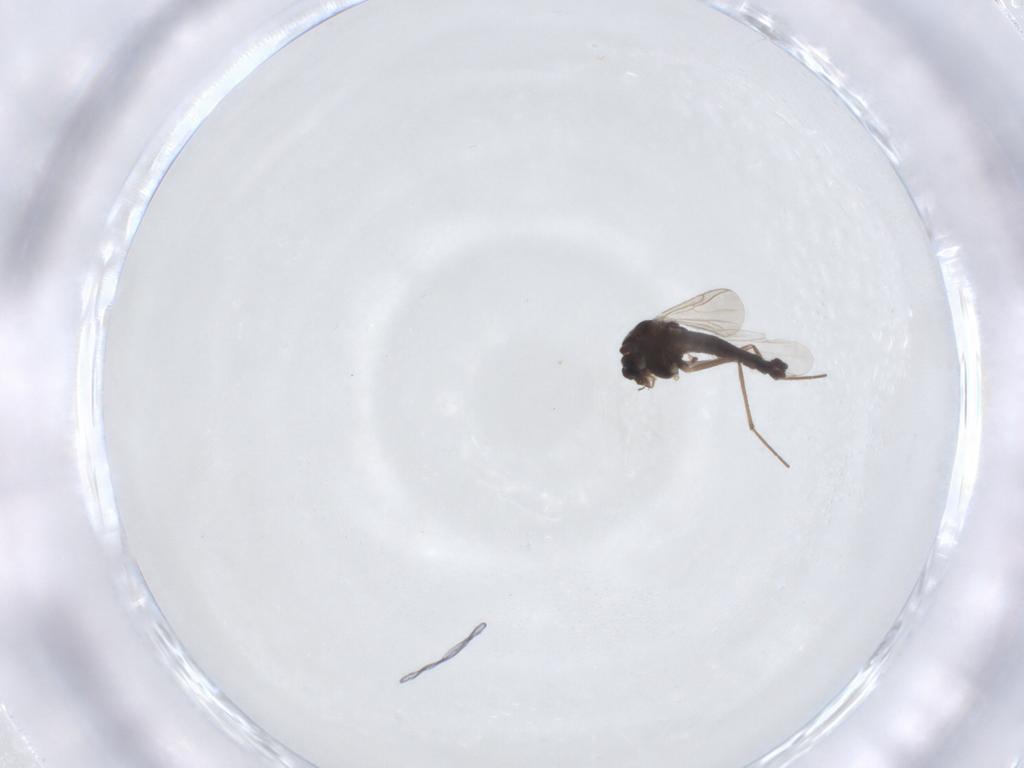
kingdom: Animalia
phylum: Arthropoda
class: Insecta
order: Diptera
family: Chironomidae
